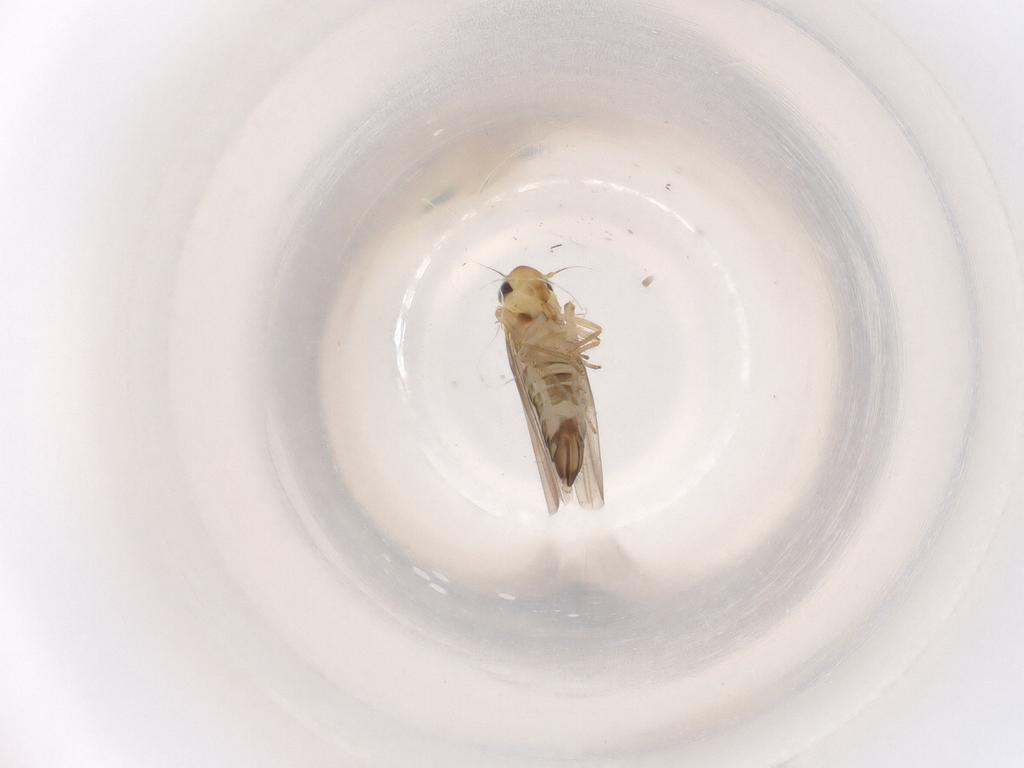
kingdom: Animalia
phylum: Arthropoda
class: Insecta
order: Hemiptera
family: Cicadellidae
